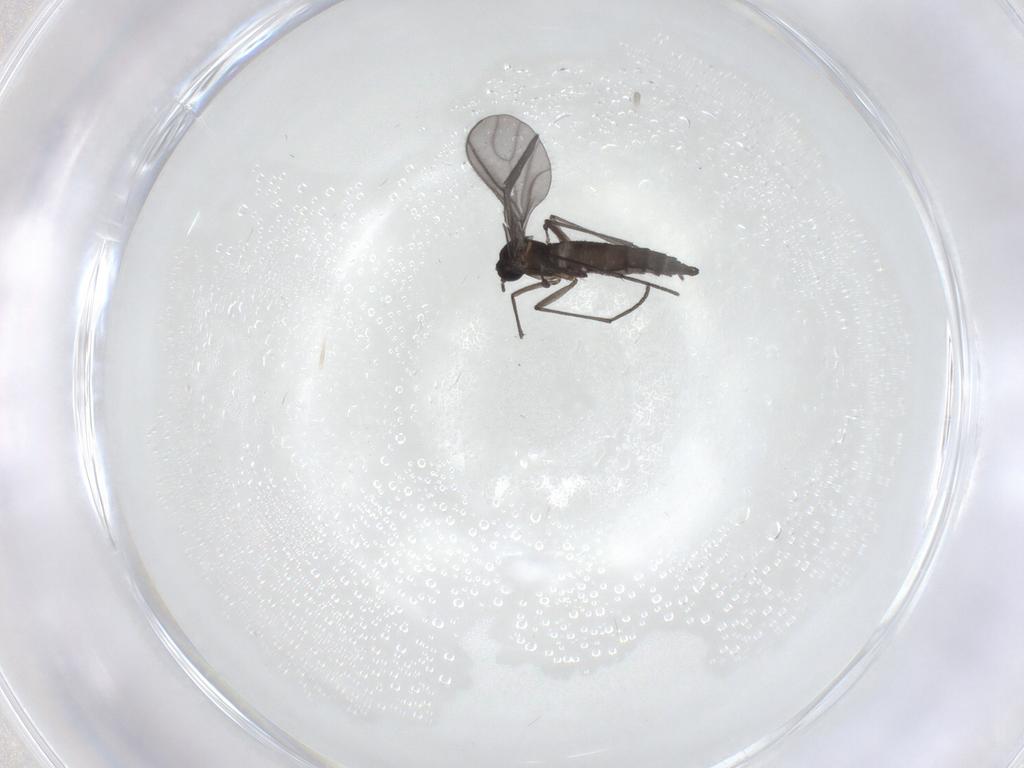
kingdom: Animalia
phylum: Arthropoda
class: Insecta
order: Diptera
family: Sciaridae
